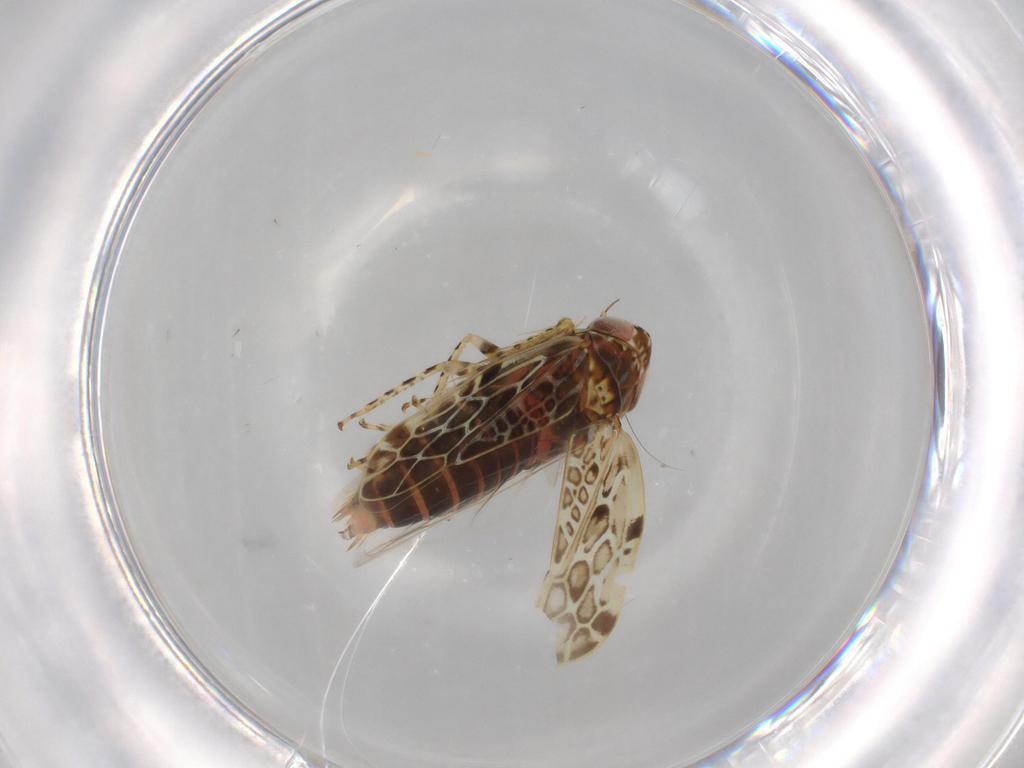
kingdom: Animalia
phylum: Arthropoda
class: Insecta
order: Hemiptera
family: Cicadellidae
